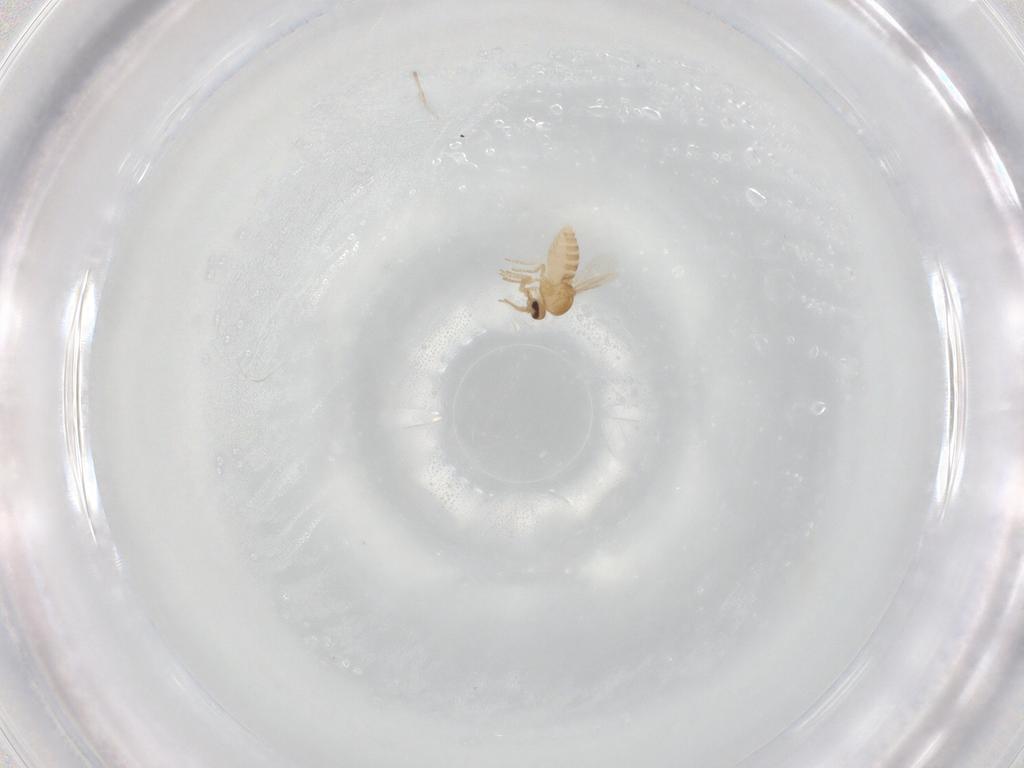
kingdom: Animalia
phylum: Arthropoda
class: Insecta
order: Diptera
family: Ceratopogonidae
